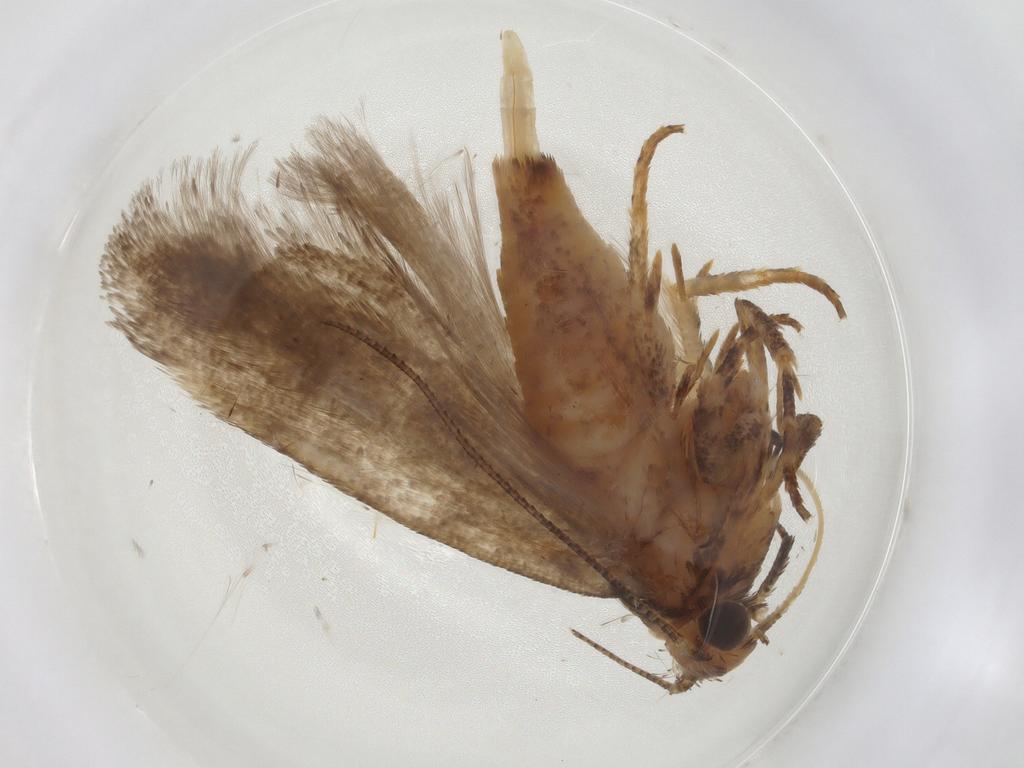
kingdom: Animalia
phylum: Arthropoda
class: Insecta
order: Lepidoptera
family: Gelechiidae
